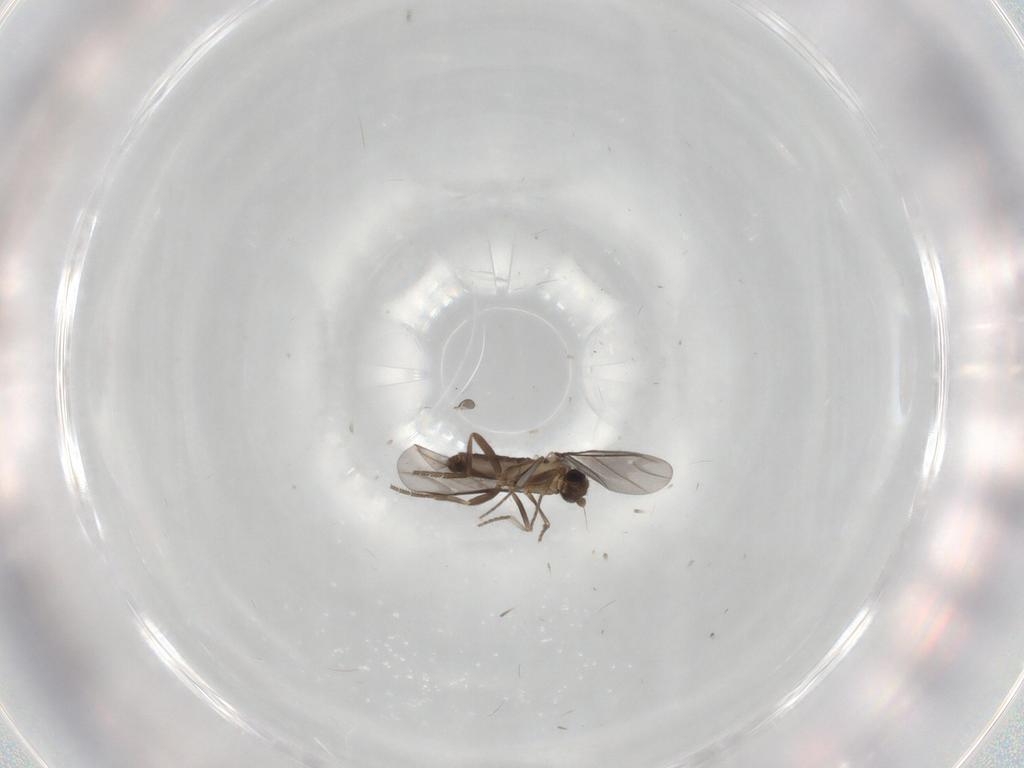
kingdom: Animalia
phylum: Arthropoda
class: Insecta
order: Diptera
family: Phoridae
